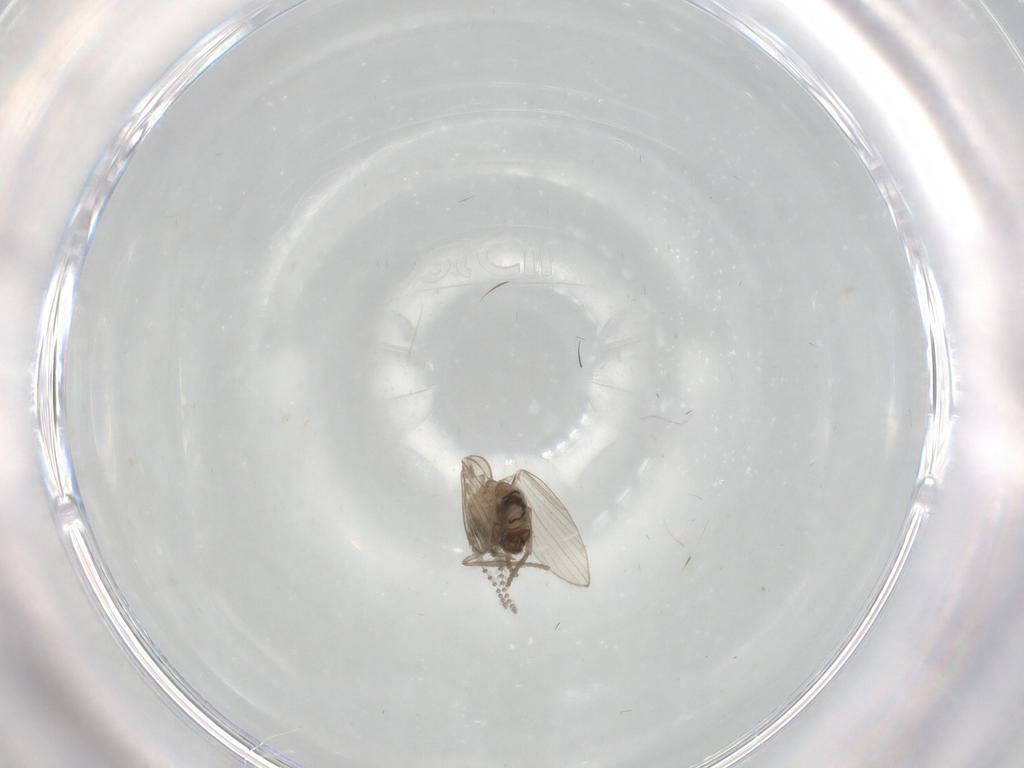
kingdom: Animalia
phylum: Arthropoda
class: Insecta
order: Diptera
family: Psychodidae
